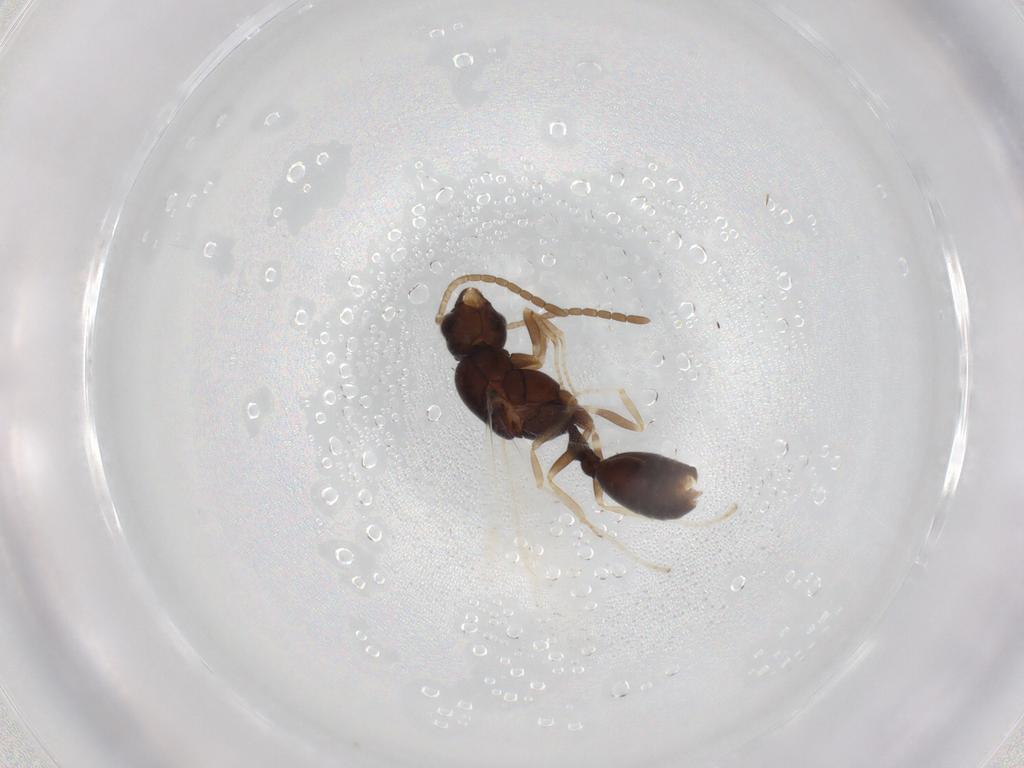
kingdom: Animalia
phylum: Arthropoda
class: Insecta
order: Hymenoptera
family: Formicidae
